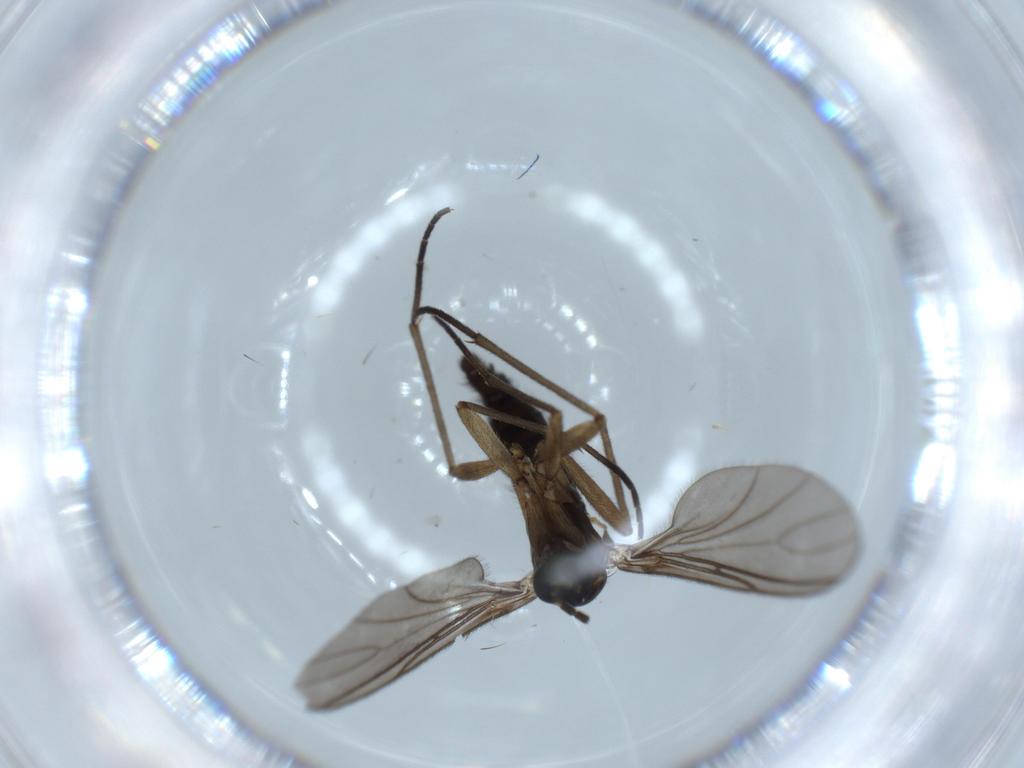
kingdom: Animalia
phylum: Arthropoda
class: Insecta
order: Diptera
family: Sciaridae
